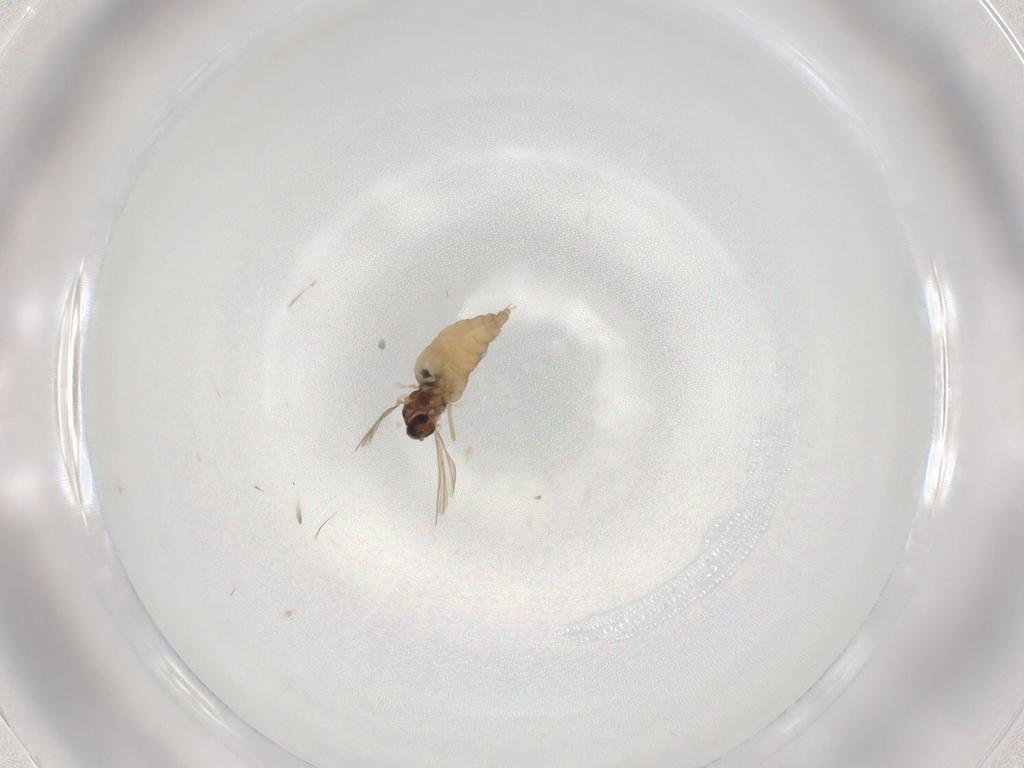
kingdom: Animalia
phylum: Arthropoda
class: Insecta
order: Diptera
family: Cecidomyiidae
